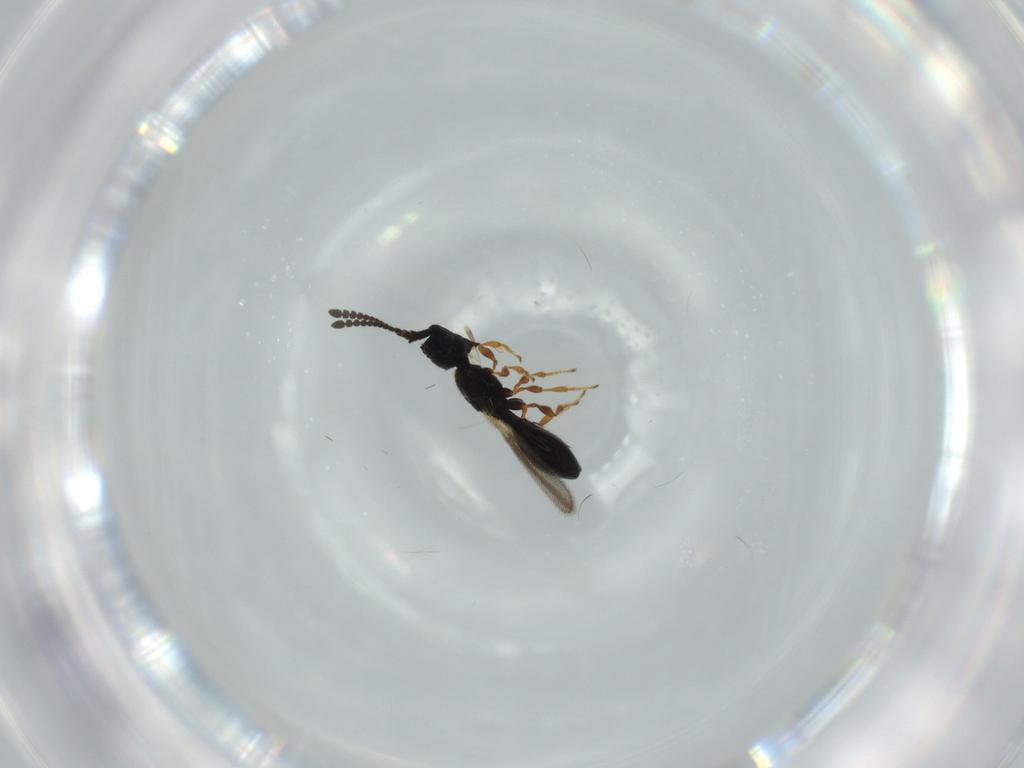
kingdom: Animalia
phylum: Arthropoda
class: Insecta
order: Hymenoptera
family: Diapriidae
